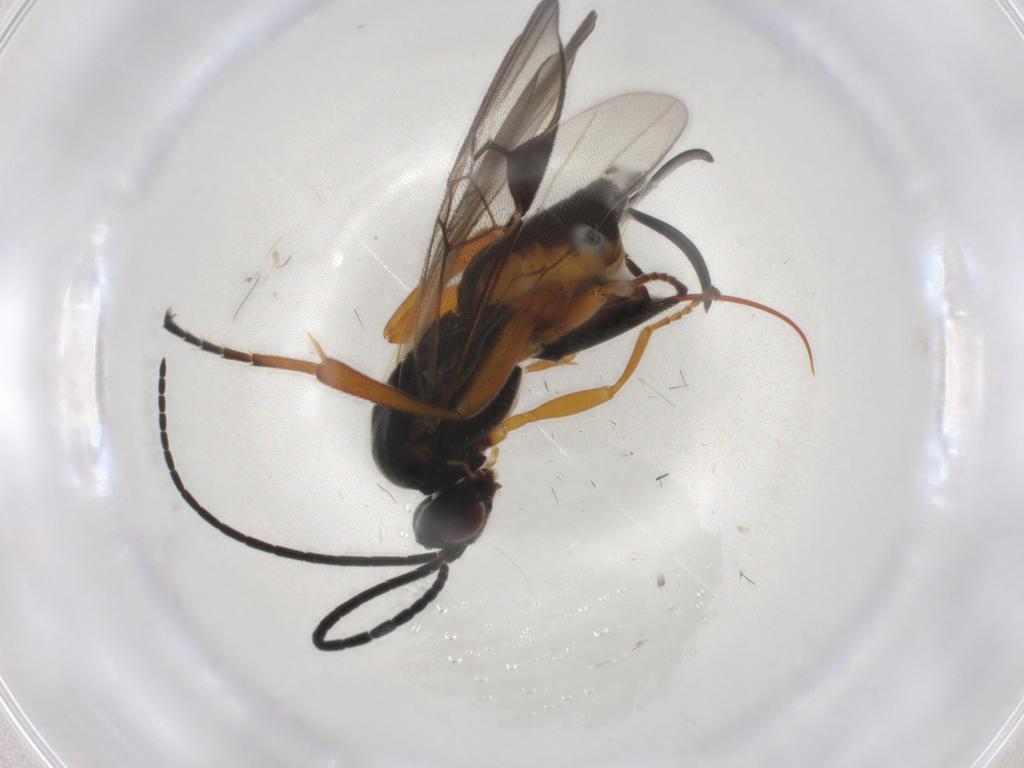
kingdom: Animalia
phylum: Arthropoda
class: Insecta
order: Lepidoptera
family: Tortricidae
